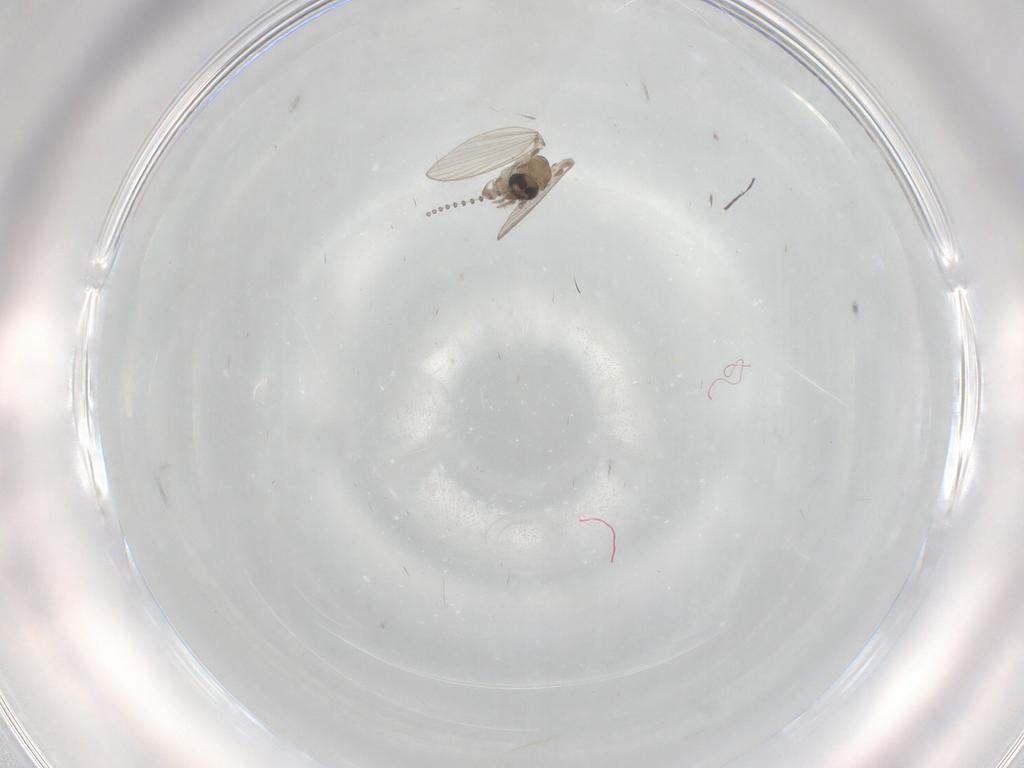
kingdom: Animalia
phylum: Arthropoda
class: Insecta
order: Diptera
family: Psychodidae
